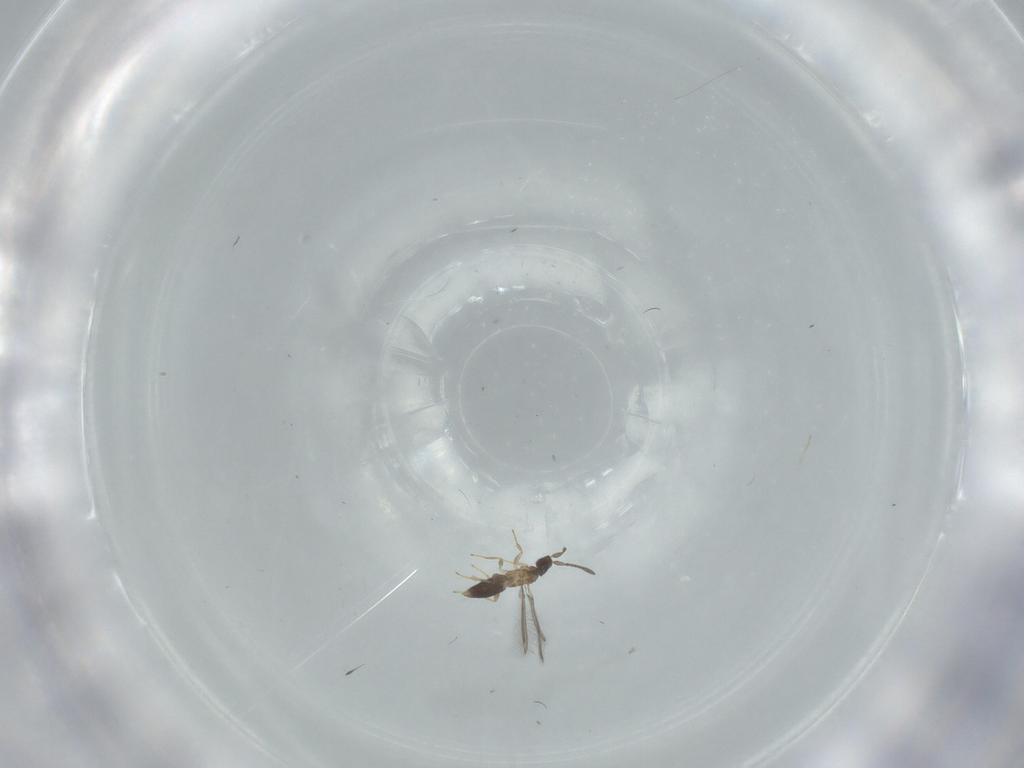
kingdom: Animalia
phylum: Arthropoda
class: Insecta
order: Hymenoptera
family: Mymaridae
